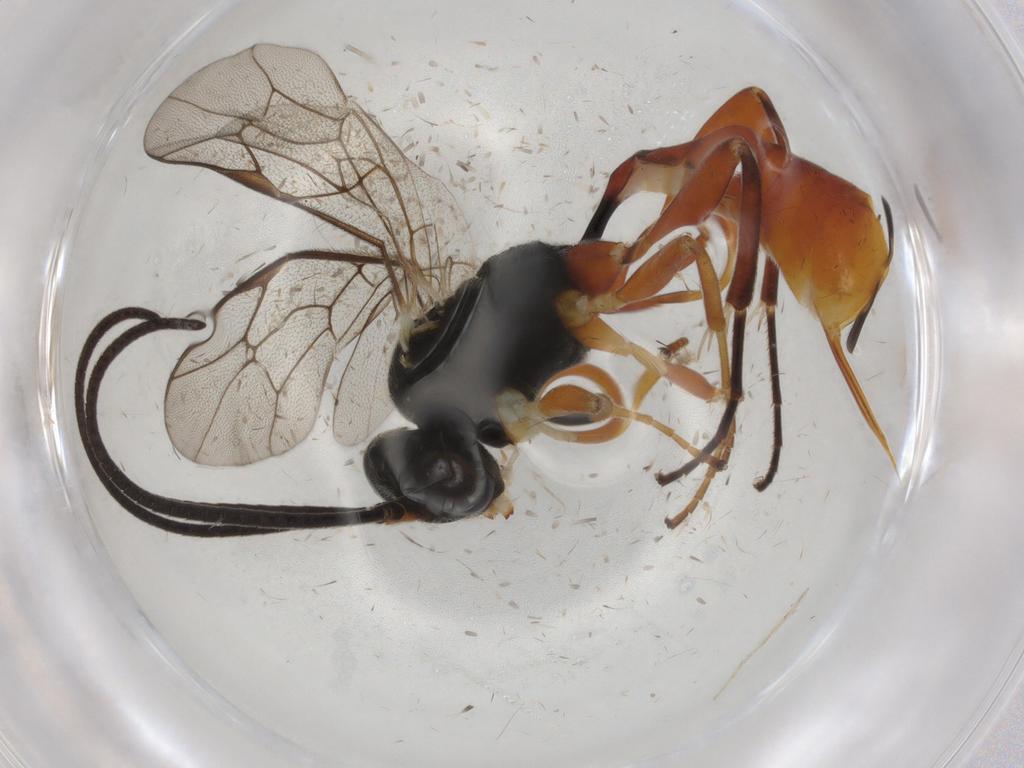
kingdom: Animalia
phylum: Arthropoda
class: Insecta
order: Hymenoptera
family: Ichneumonidae
